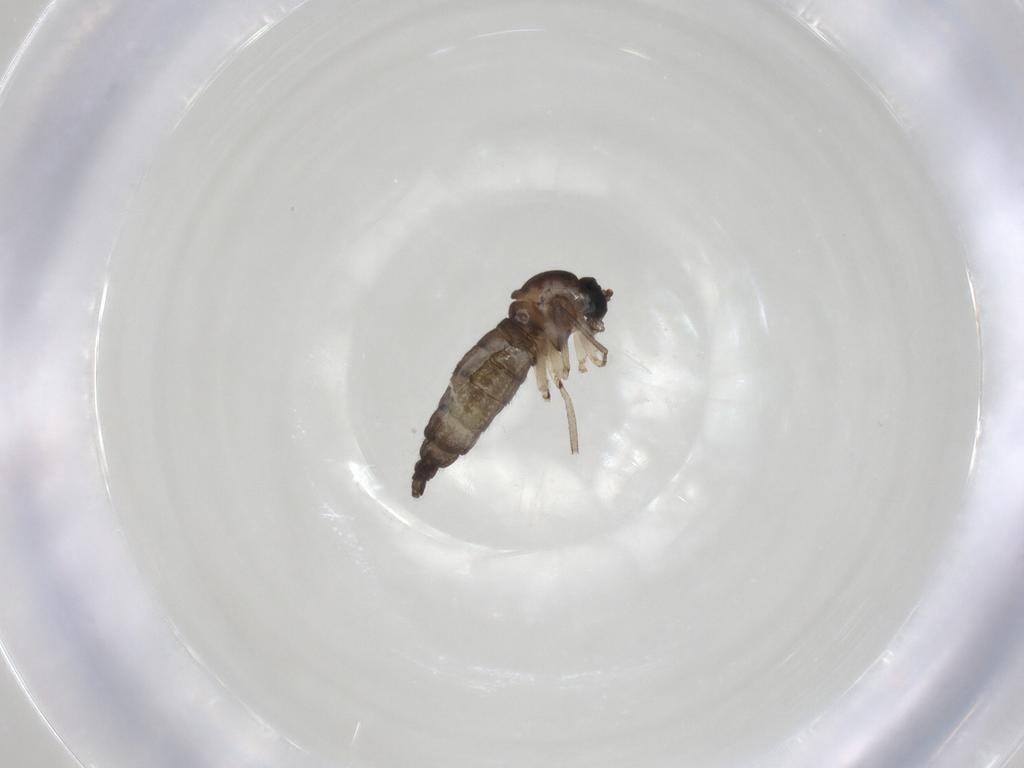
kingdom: Animalia
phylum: Arthropoda
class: Insecta
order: Diptera
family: Sciaridae
